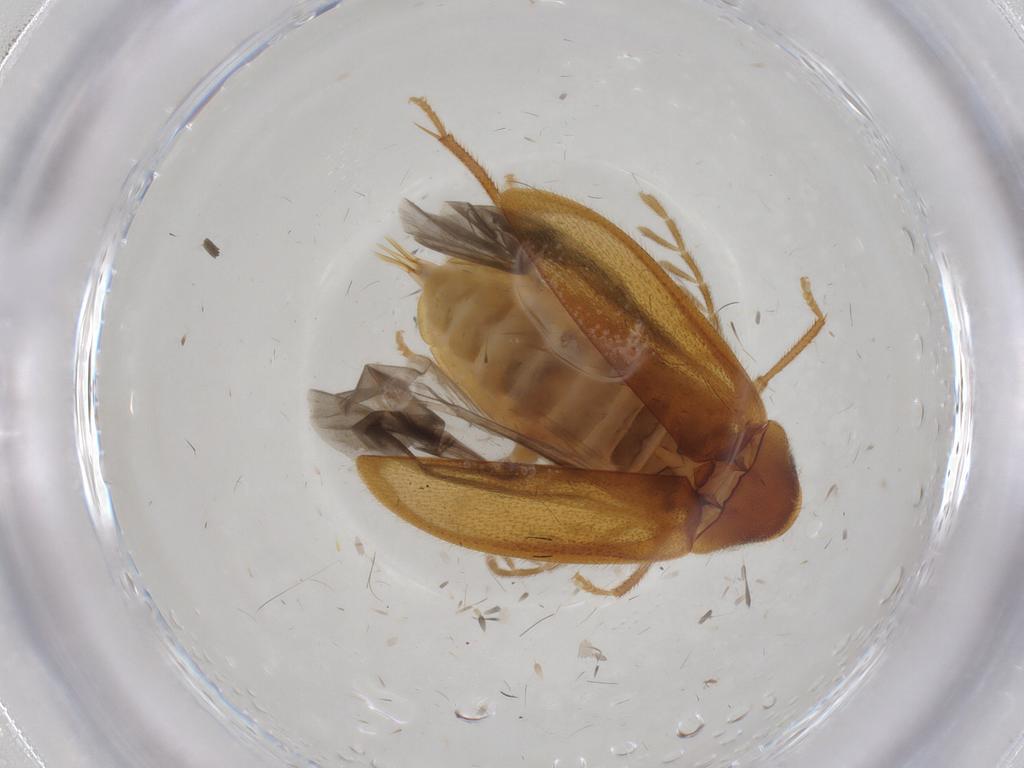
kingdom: Animalia
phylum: Arthropoda
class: Insecta
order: Coleoptera
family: Ptilodactylidae
